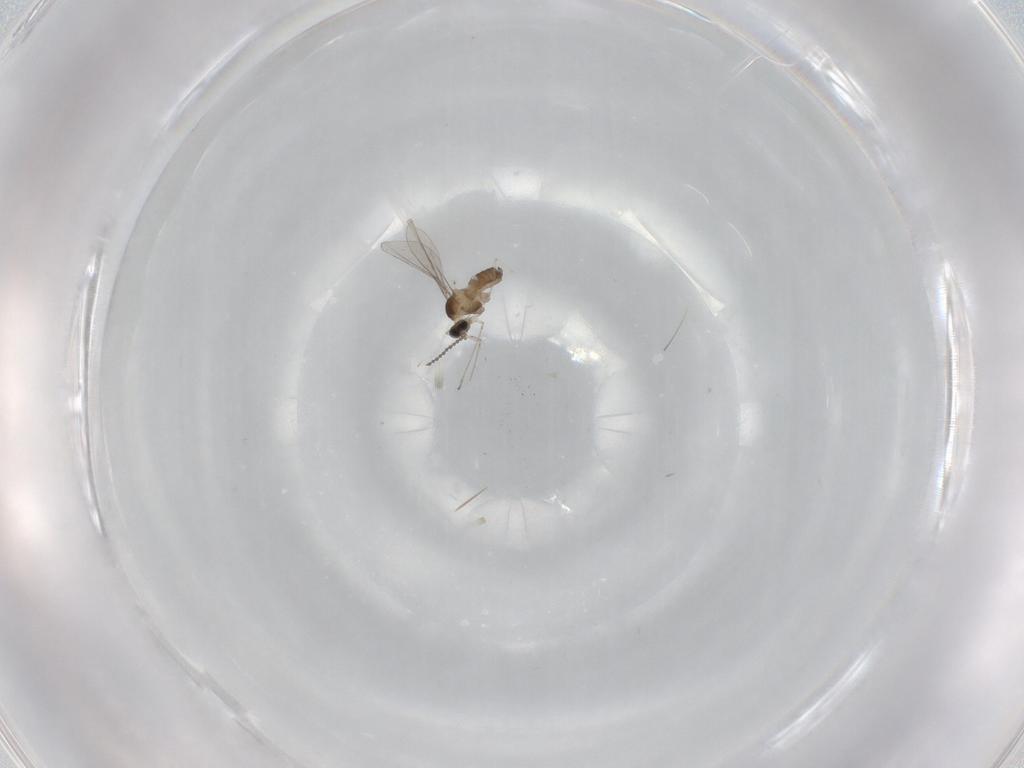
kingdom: Animalia
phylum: Arthropoda
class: Insecta
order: Diptera
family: Cecidomyiidae
